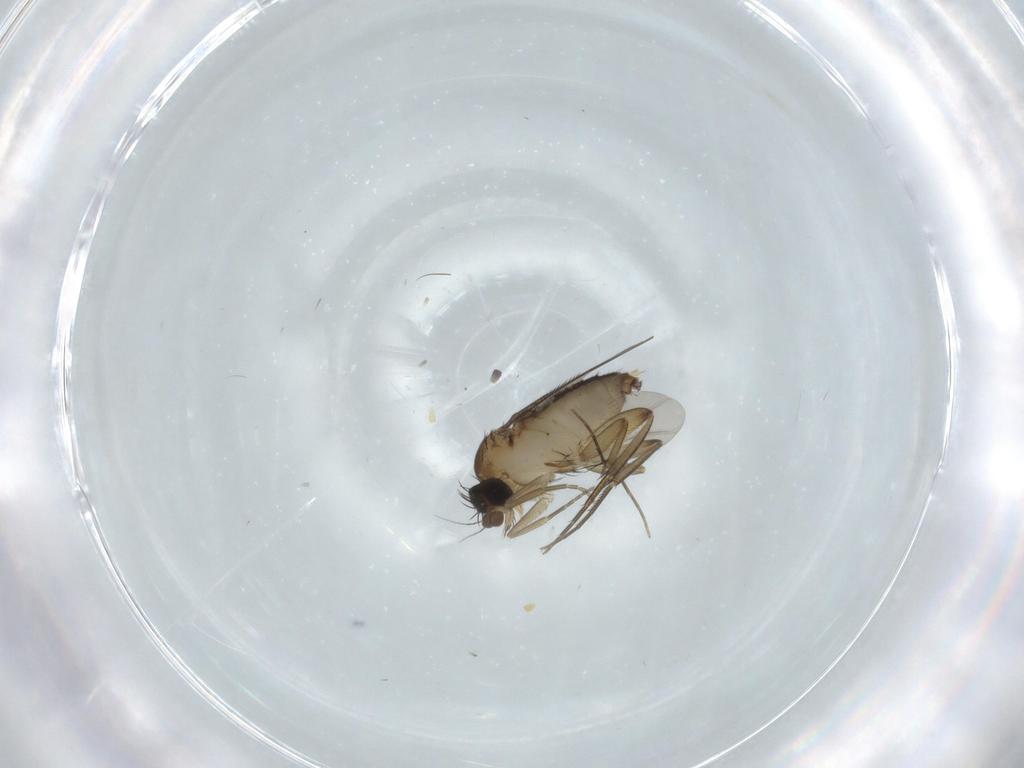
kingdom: Animalia
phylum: Arthropoda
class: Insecta
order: Diptera
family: Phoridae
